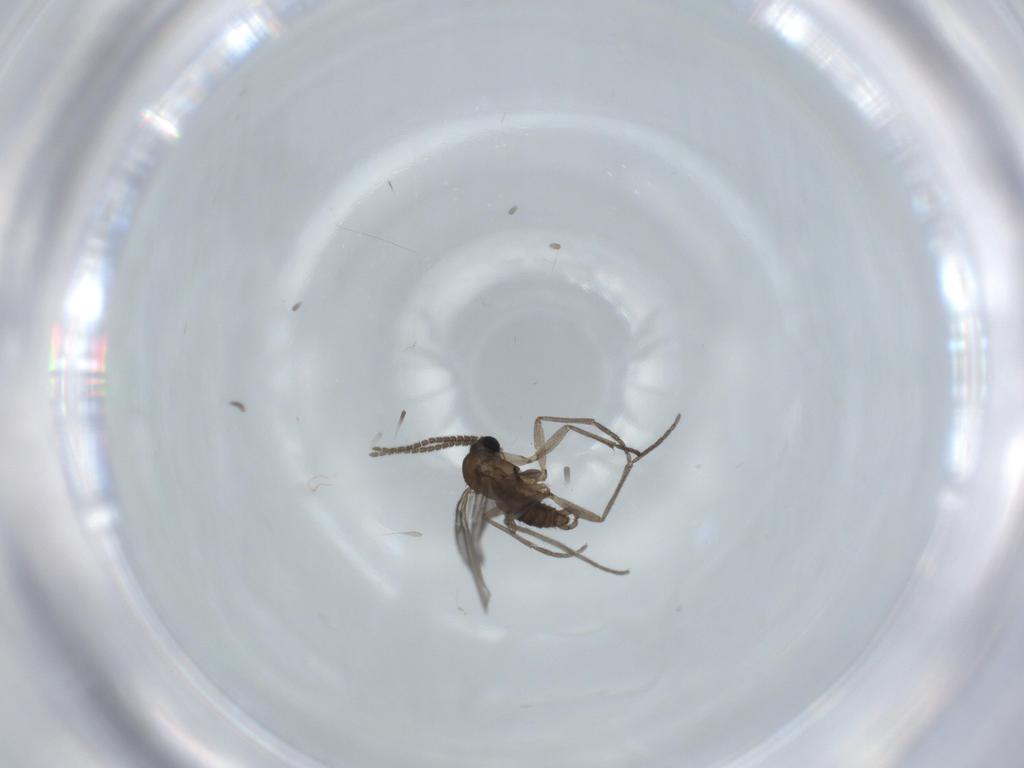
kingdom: Animalia
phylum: Arthropoda
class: Insecta
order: Diptera
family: Sciaridae
